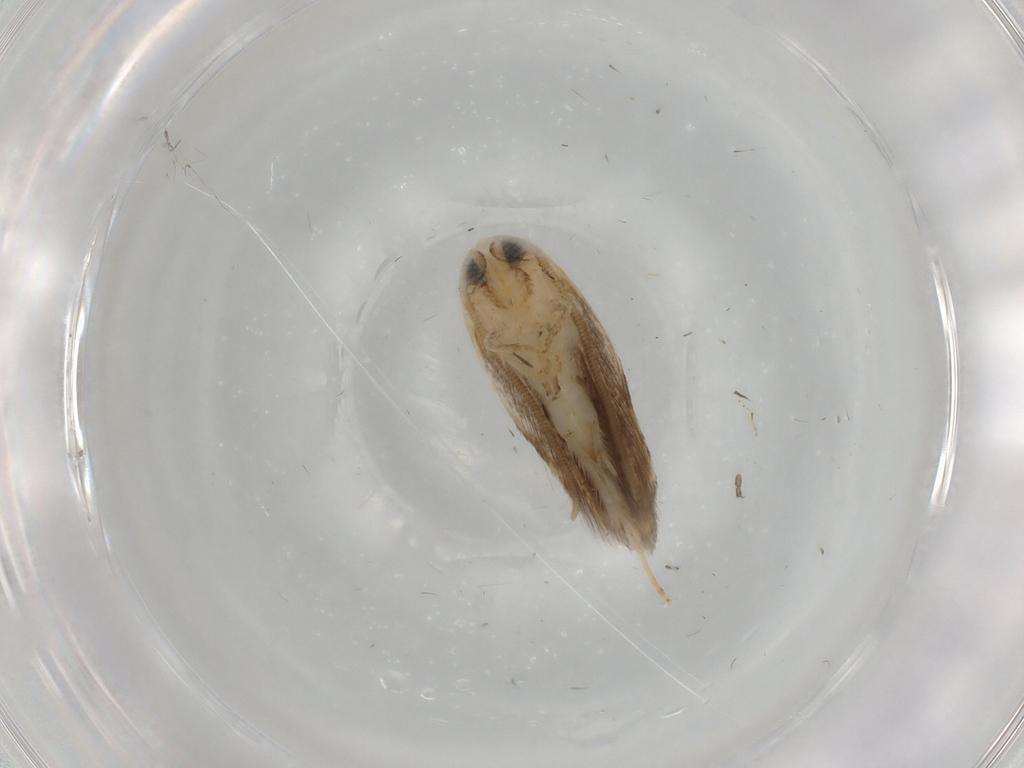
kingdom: Animalia
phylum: Arthropoda
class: Insecta
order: Lepidoptera
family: Opostegidae
